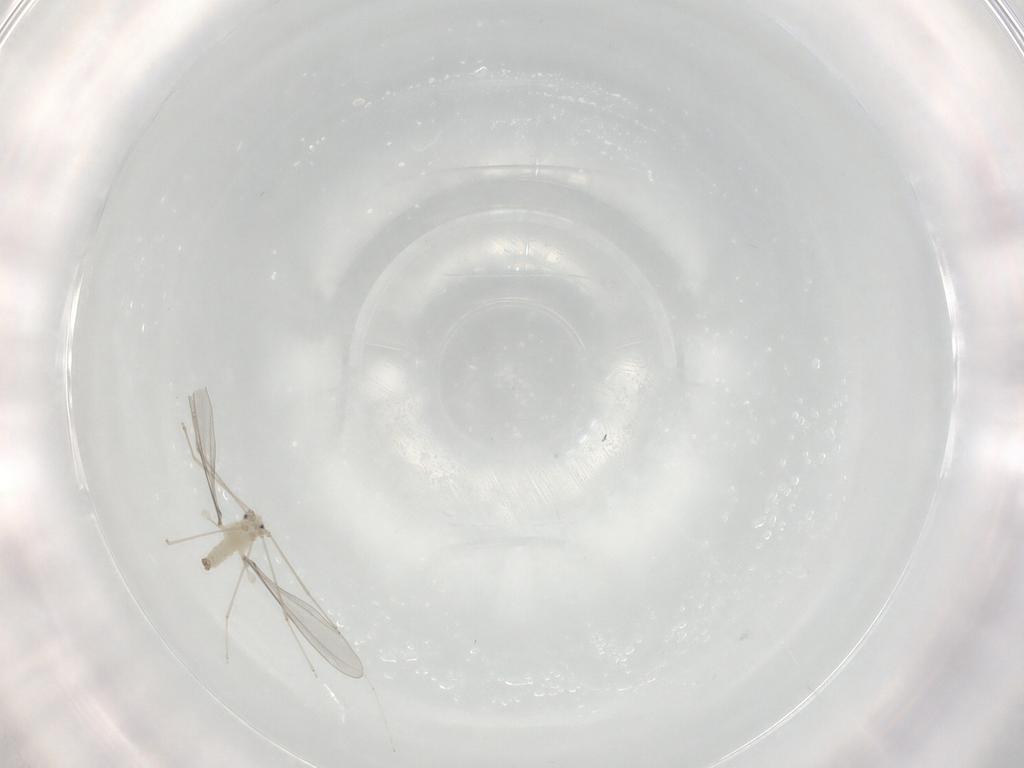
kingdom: Animalia
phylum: Arthropoda
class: Insecta
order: Diptera
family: Cecidomyiidae
